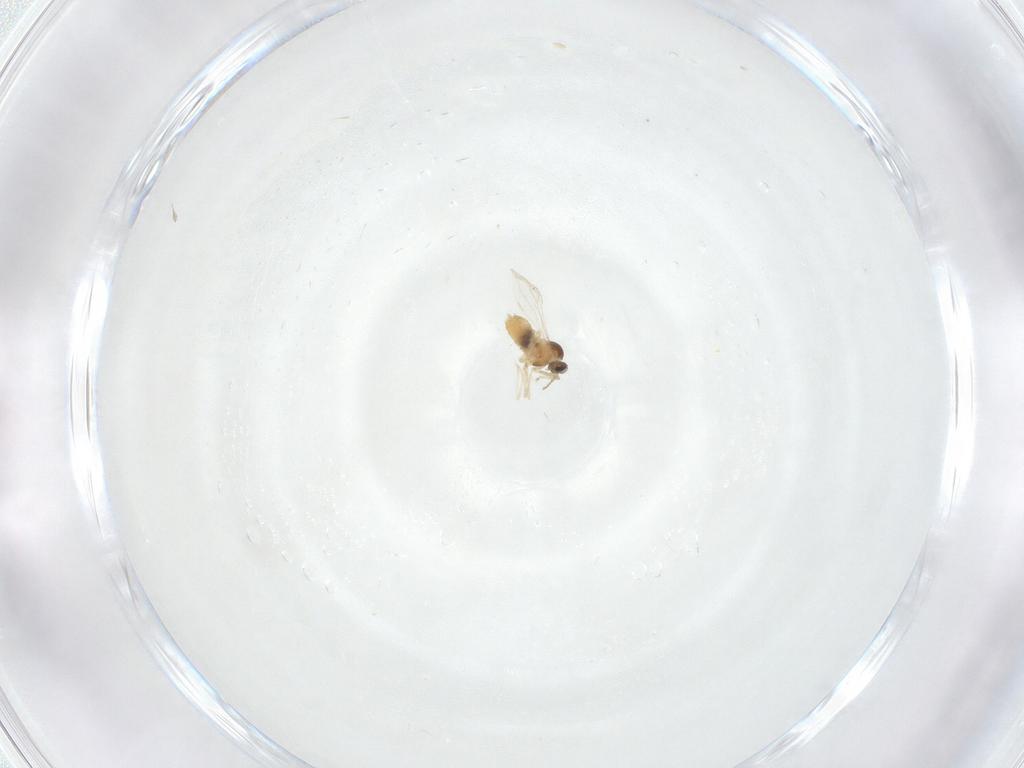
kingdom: Animalia
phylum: Arthropoda
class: Insecta
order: Diptera
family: Cecidomyiidae
